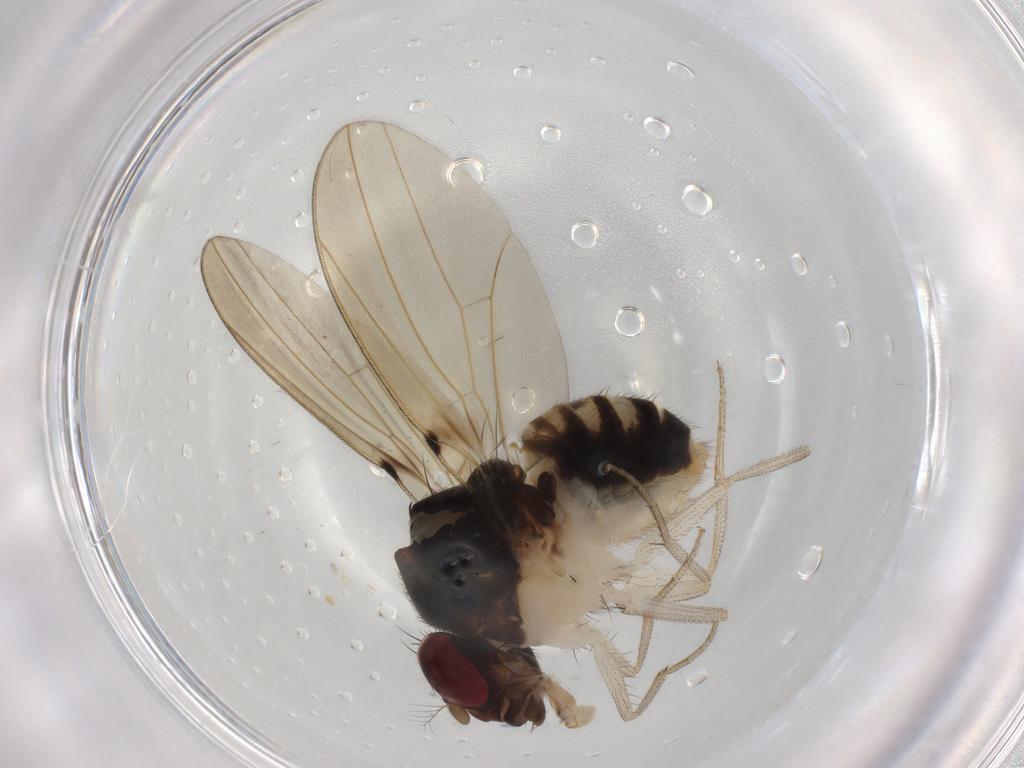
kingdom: Animalia
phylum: Arthropoda
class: Insecta
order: Diptera
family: Drosophilidae
